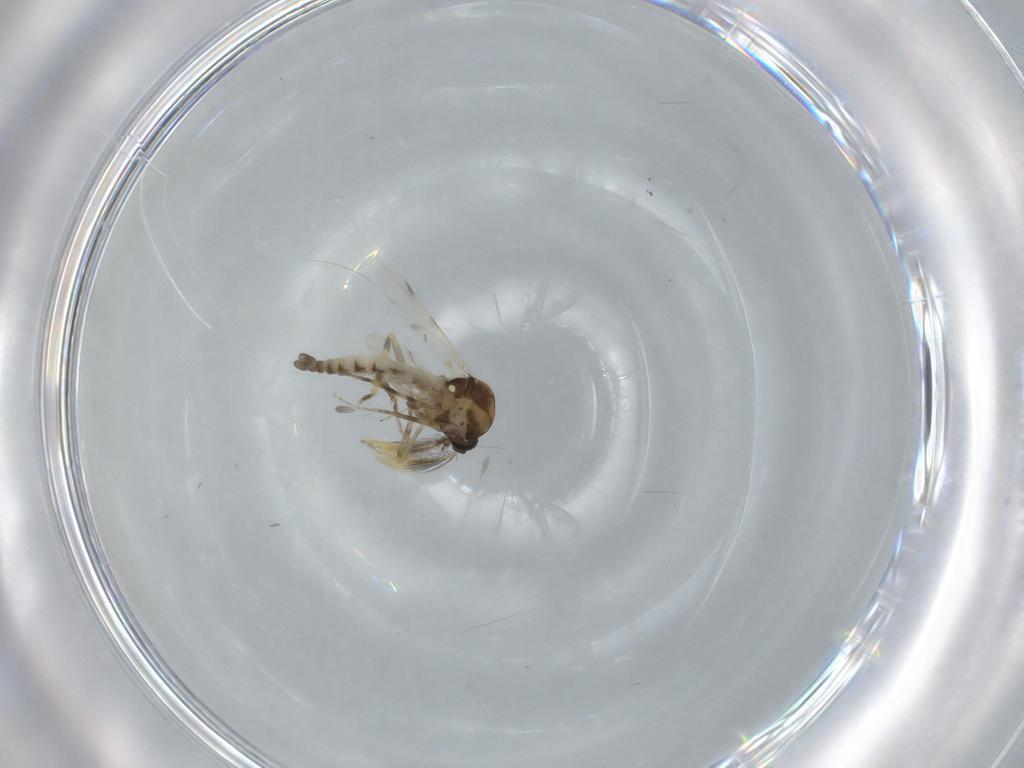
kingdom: Animalia
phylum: Arthropoda
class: Insecta
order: Diptera
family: Ceratopogonidae
